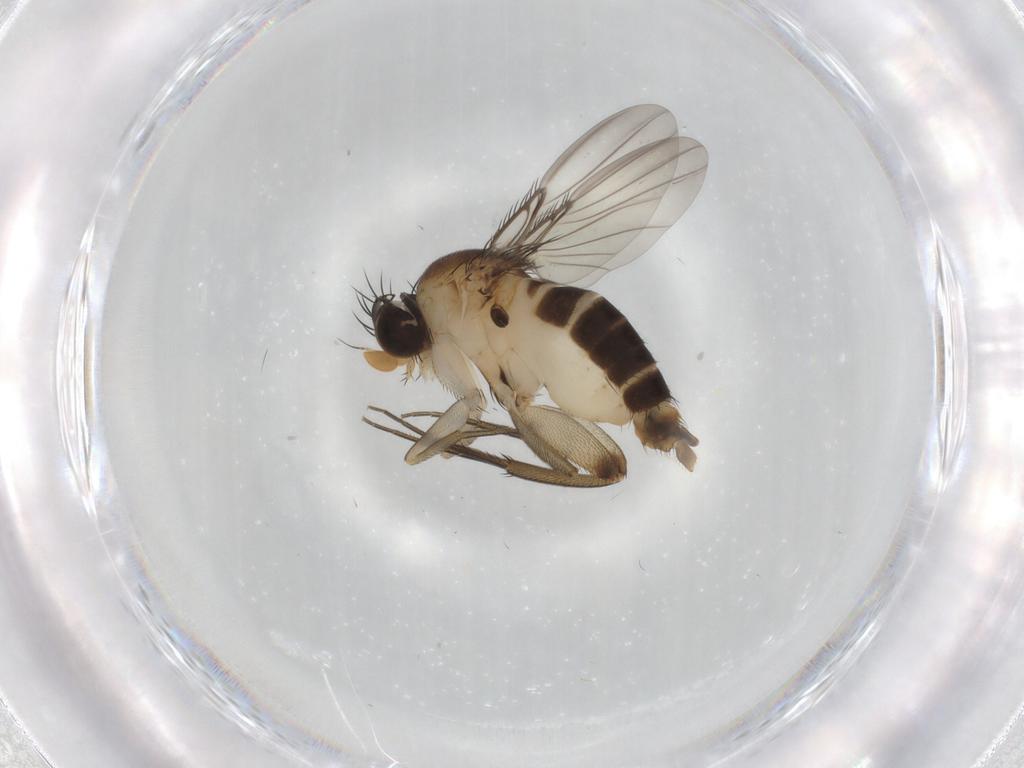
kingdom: Animalia
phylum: Arthropoda
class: Insecta
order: Diptera
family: Phoridae
